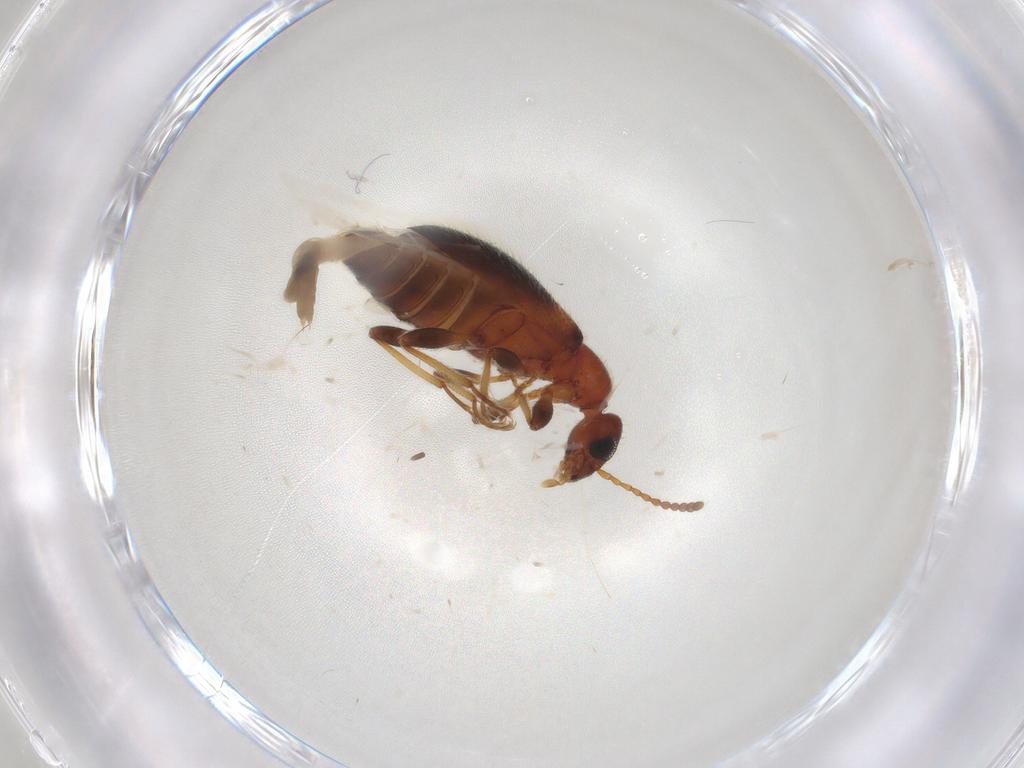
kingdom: Animalia
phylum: Arthropoda
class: Insecta
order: Coleoptera
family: Anthicidae
